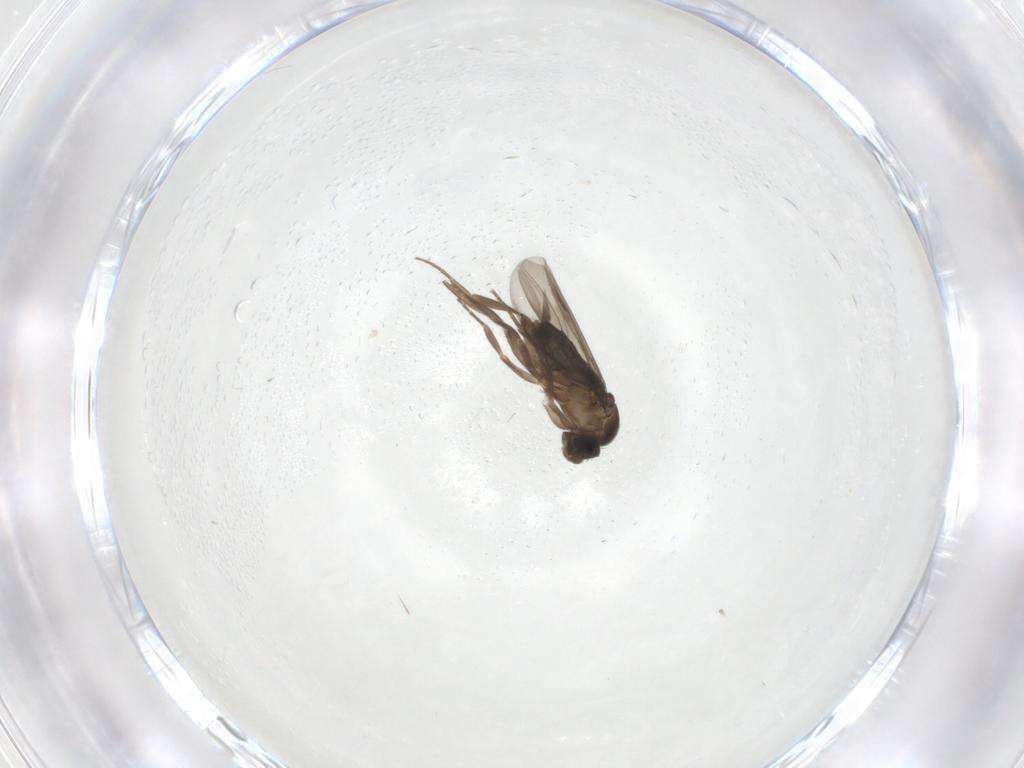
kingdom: Animalia
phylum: Arthropoda
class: Insecta
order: Diptera
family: Phoridae
